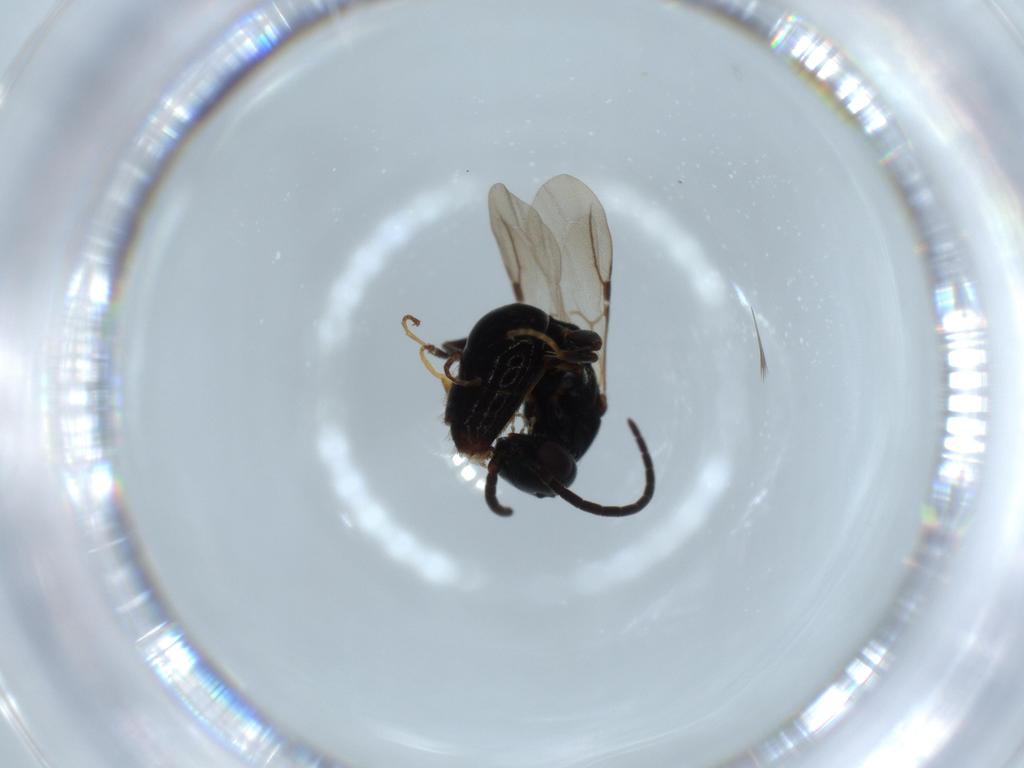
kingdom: Animalia
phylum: Arthropoda
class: Insecta
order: Hymenoptera
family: Bethylidae
